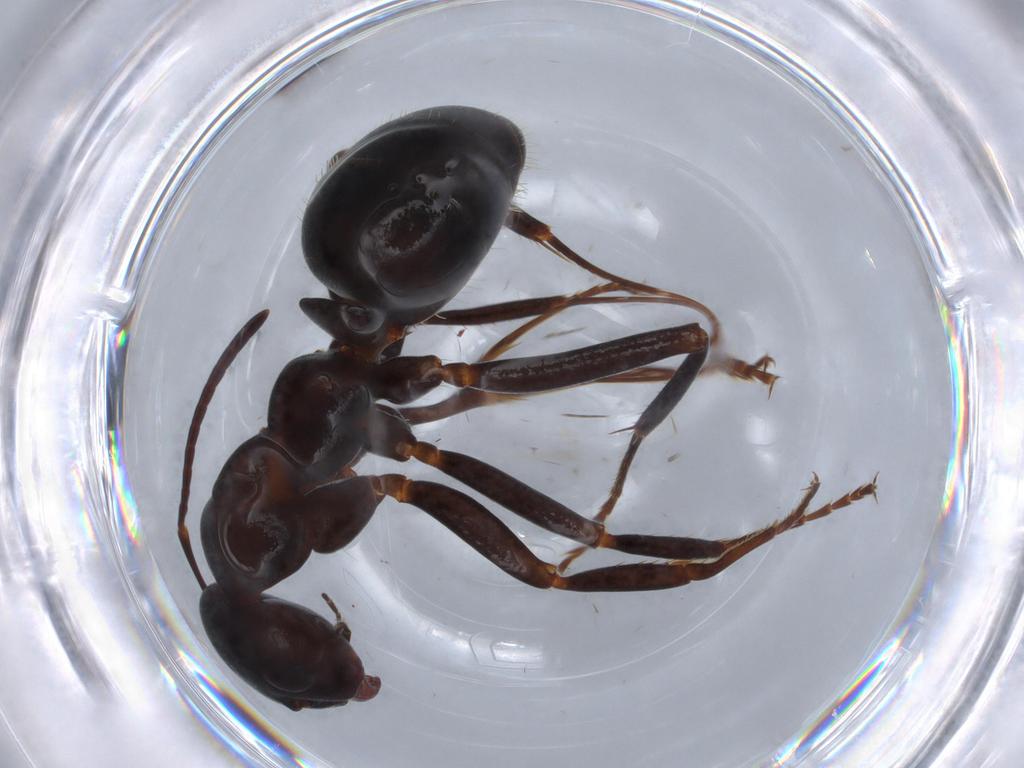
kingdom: Animalia
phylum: Arthropoda
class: Insecta
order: Hymenoptera
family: Formicidae
